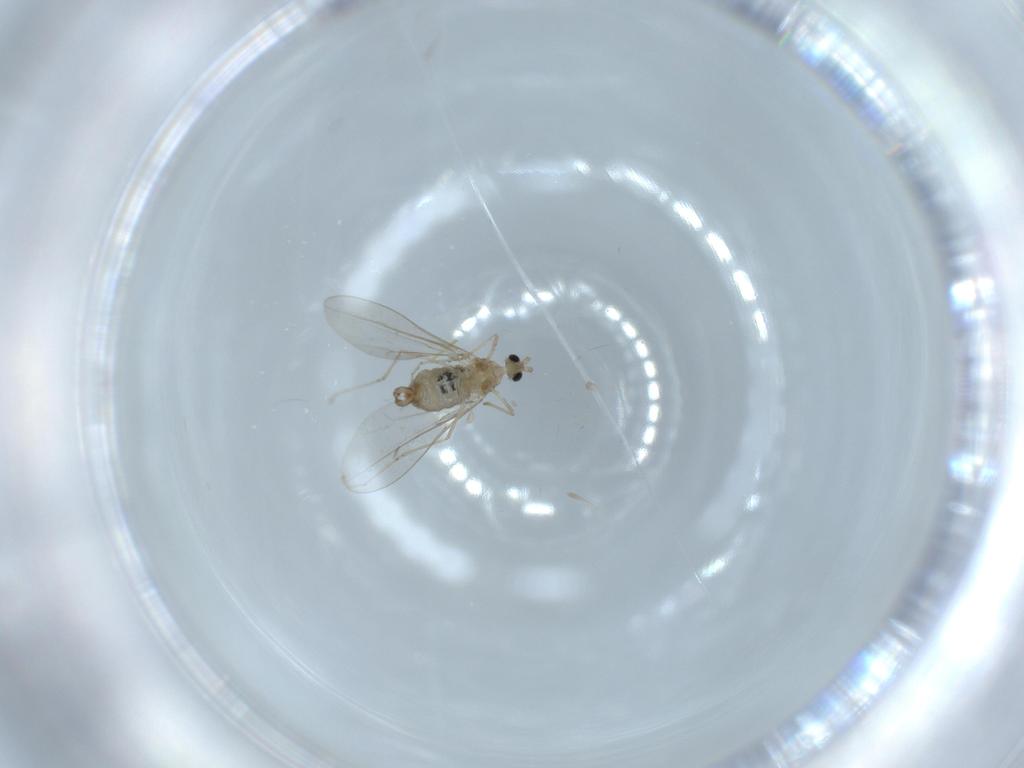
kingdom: Animalia
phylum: Arthropoda
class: Insecta
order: Diptera
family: Cecidomyiidae
